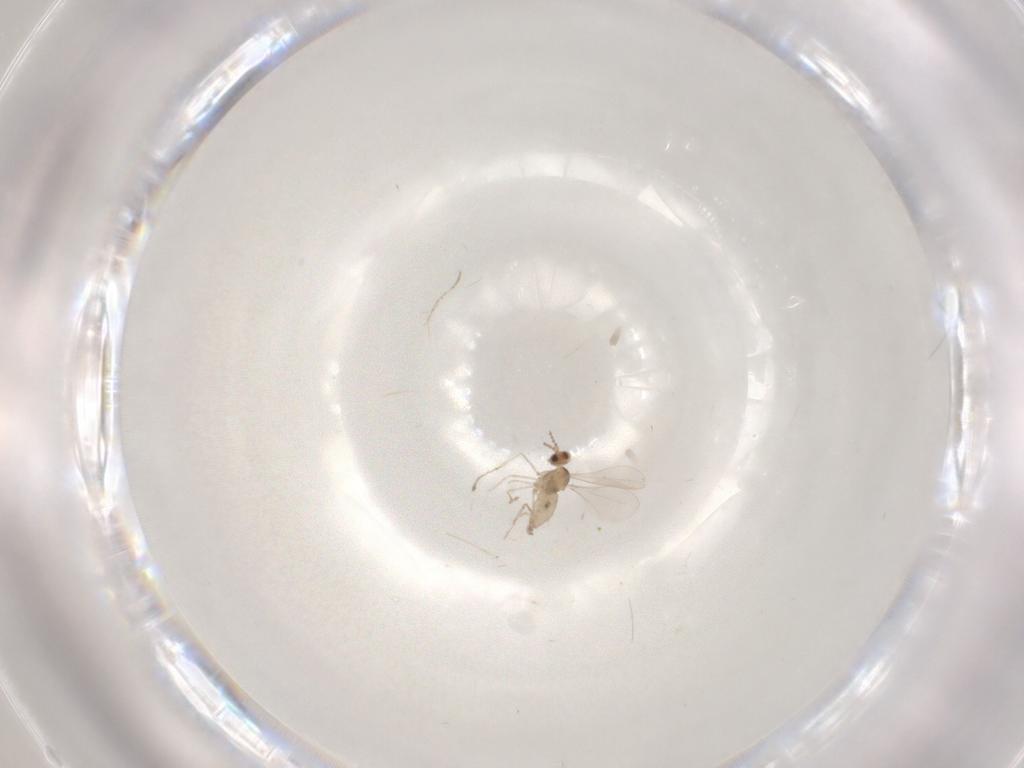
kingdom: Animalia
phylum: Arthropoda
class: Insecta
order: Diptera
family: Cecidomyiidae
